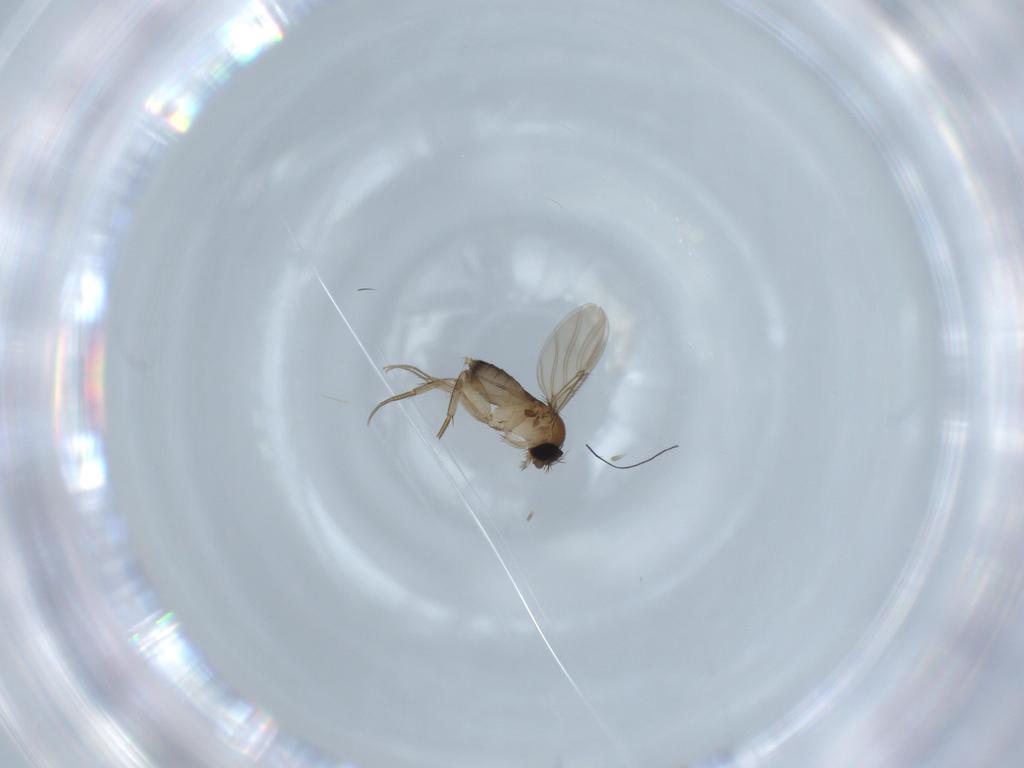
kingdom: Animalia
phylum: Arthropoda
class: Insecta
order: Diptera
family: Phoridae
